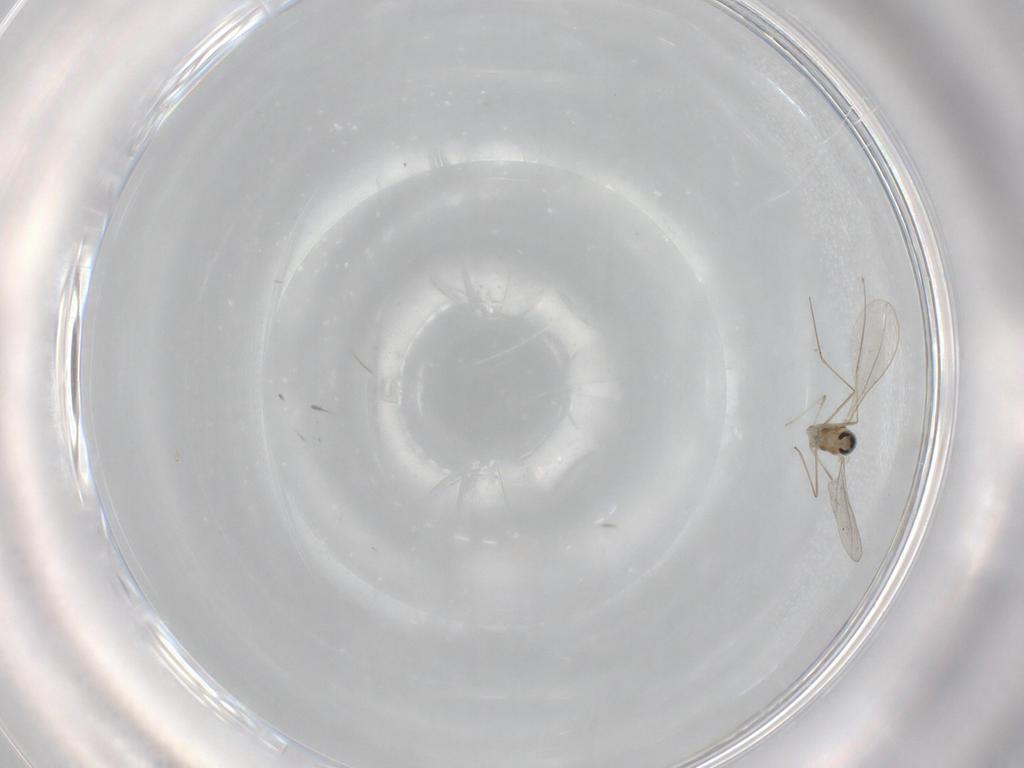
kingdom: Animalia
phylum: Arthropoda
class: Insecta
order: Diptera
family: Cecidomyiidae
